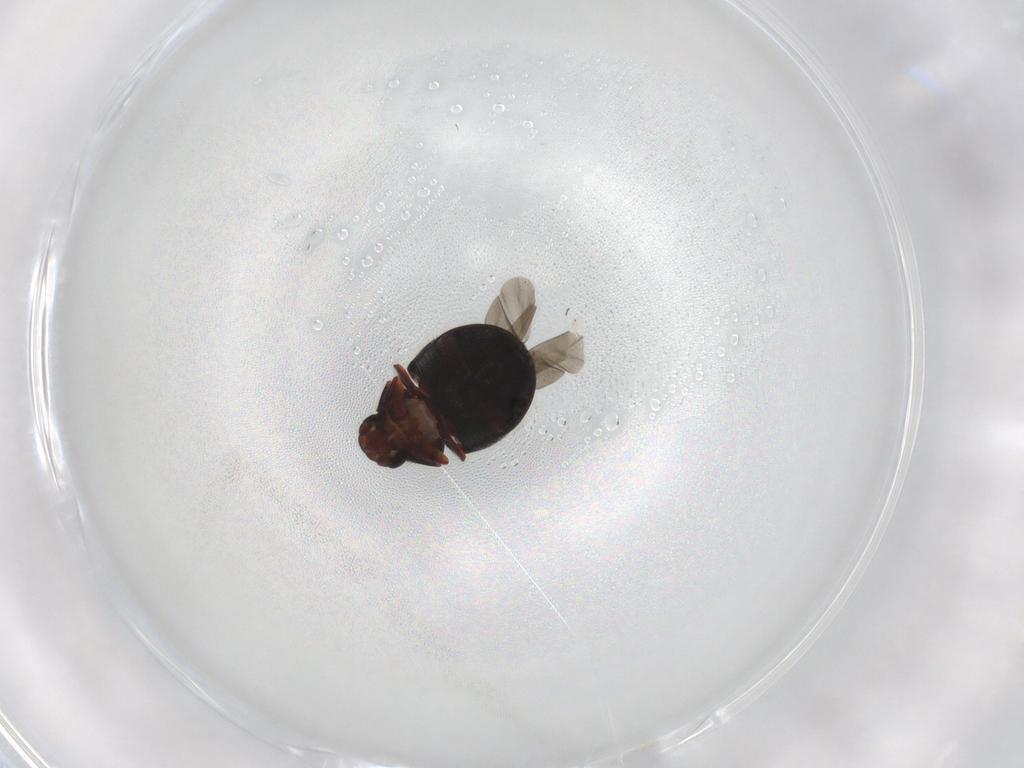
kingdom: Animalia
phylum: Arthropoda
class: Insecta
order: Coleoptera
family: Ptinidae
